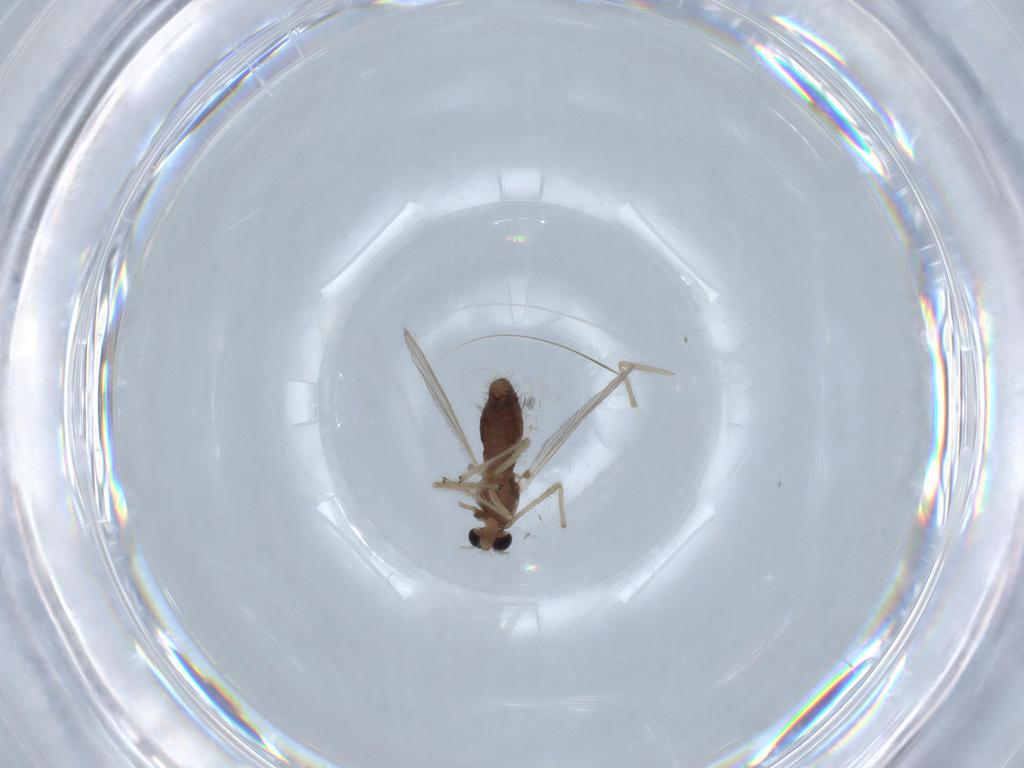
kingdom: Animalia
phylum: Arthropoda
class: Insecta
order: Diptera
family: Chironomidae
